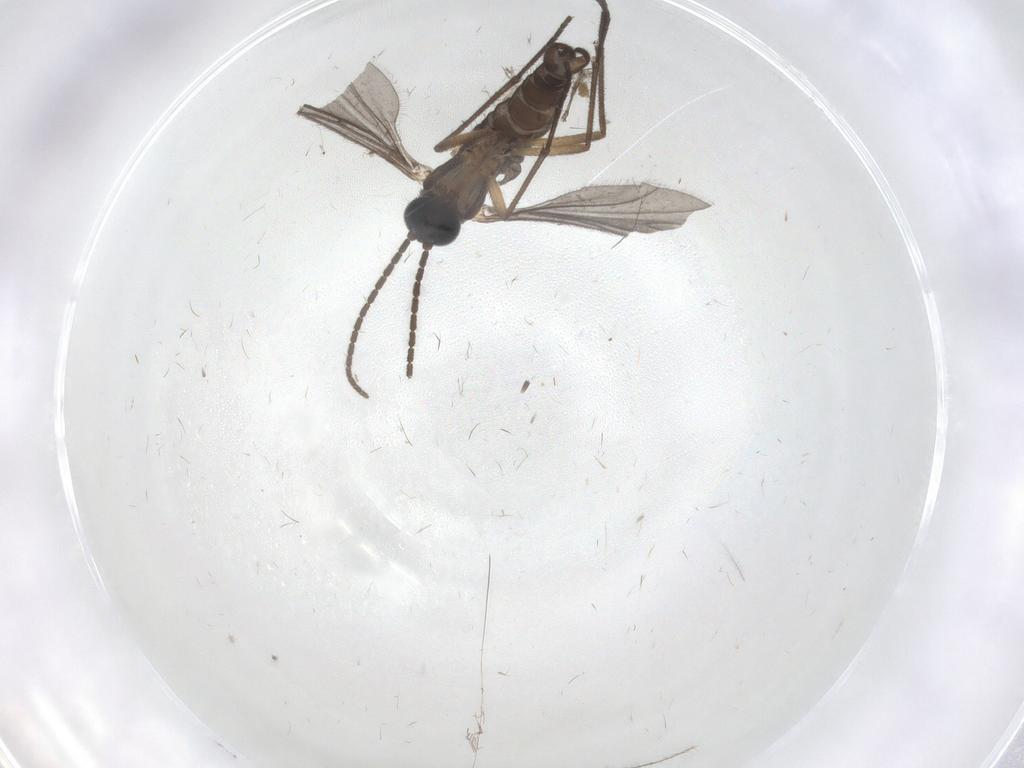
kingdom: Animalia
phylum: Arthropoda
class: Insecta
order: Diptera
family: Sciaridae
